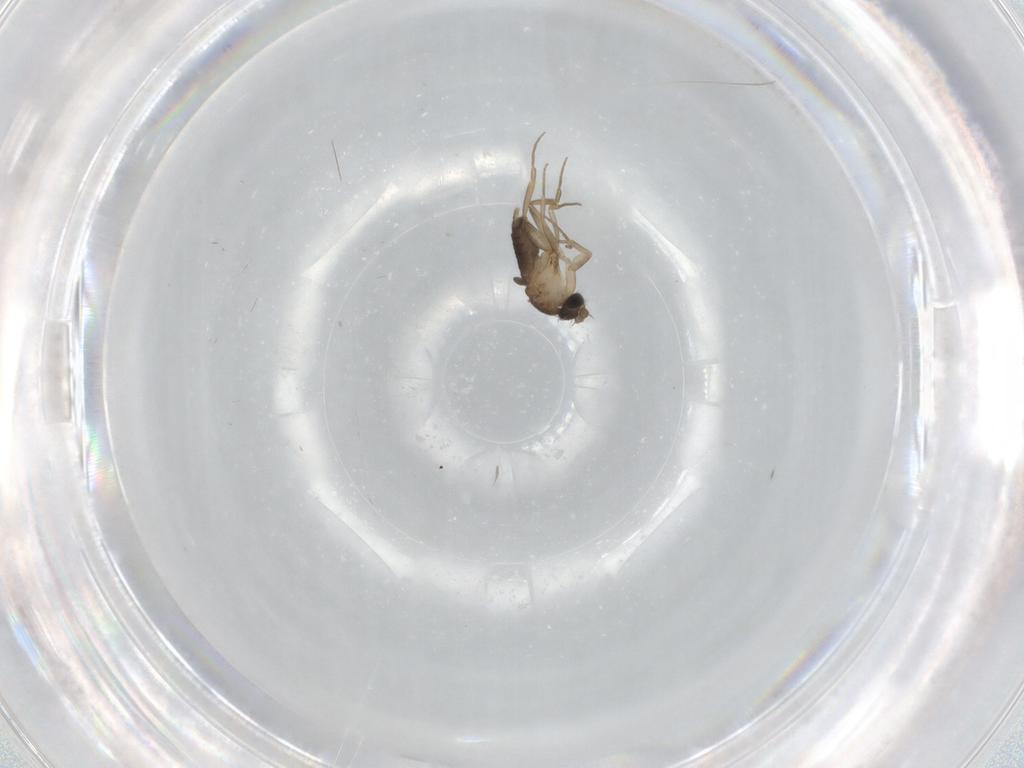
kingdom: Animalia
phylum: Arthropoda
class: Insecta
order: Diptera
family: Phoridae
